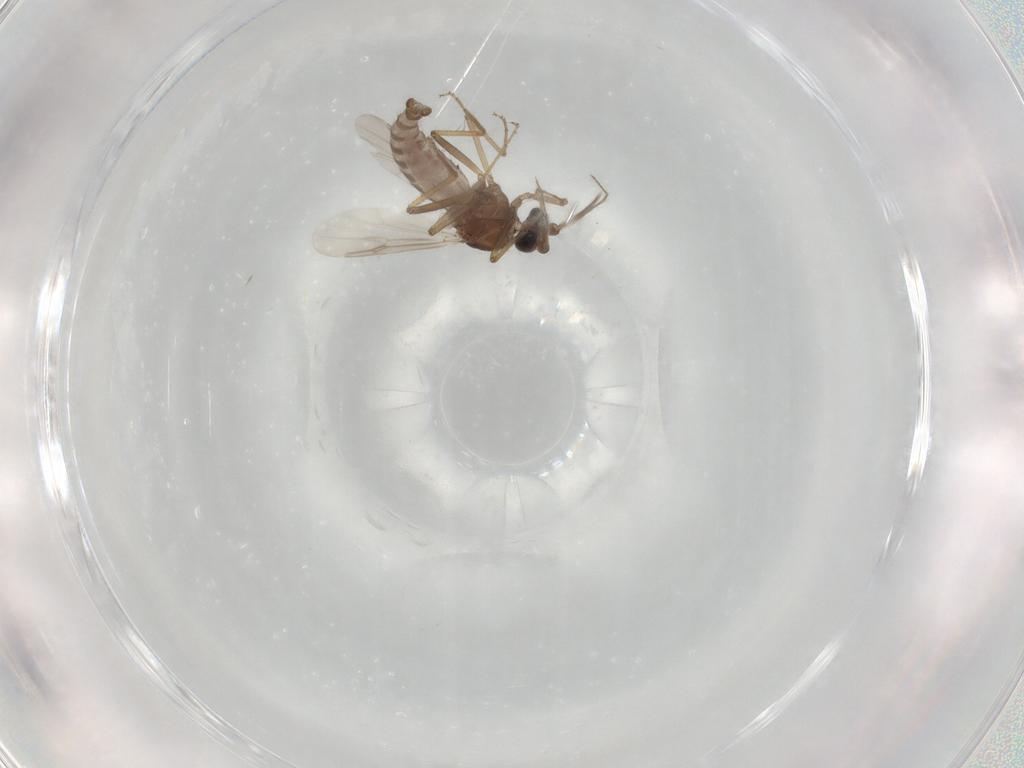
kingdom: Animalia
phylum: Arthropoda
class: Insecta
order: Diptera
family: Ceratopogonidae
